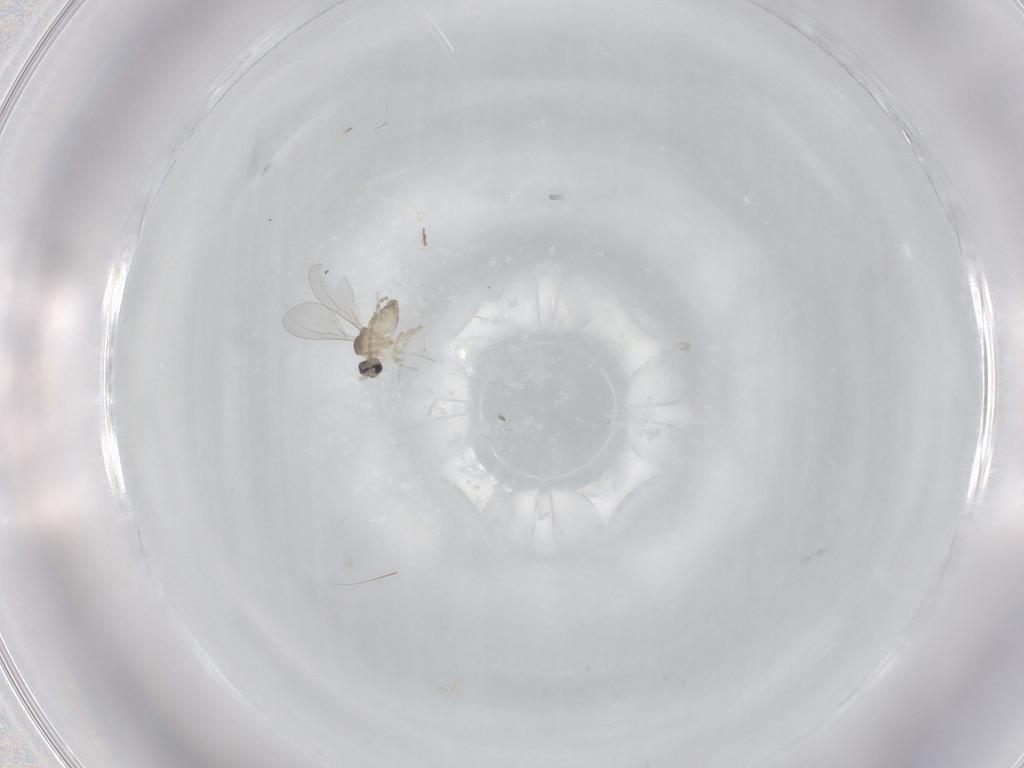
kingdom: Animalia
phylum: Arthropoda
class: Insecta
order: Diptera
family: Cecidomyiidae
